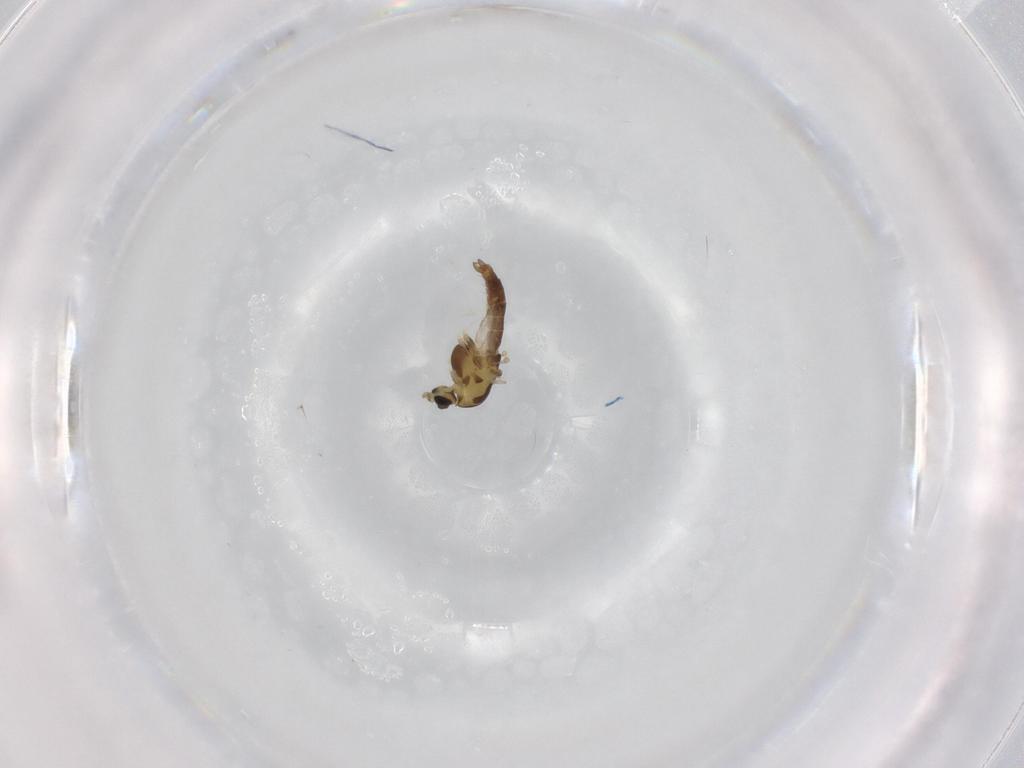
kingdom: Animalia
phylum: Arthropoda
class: Insecta
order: Diptera
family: Chironomidae
